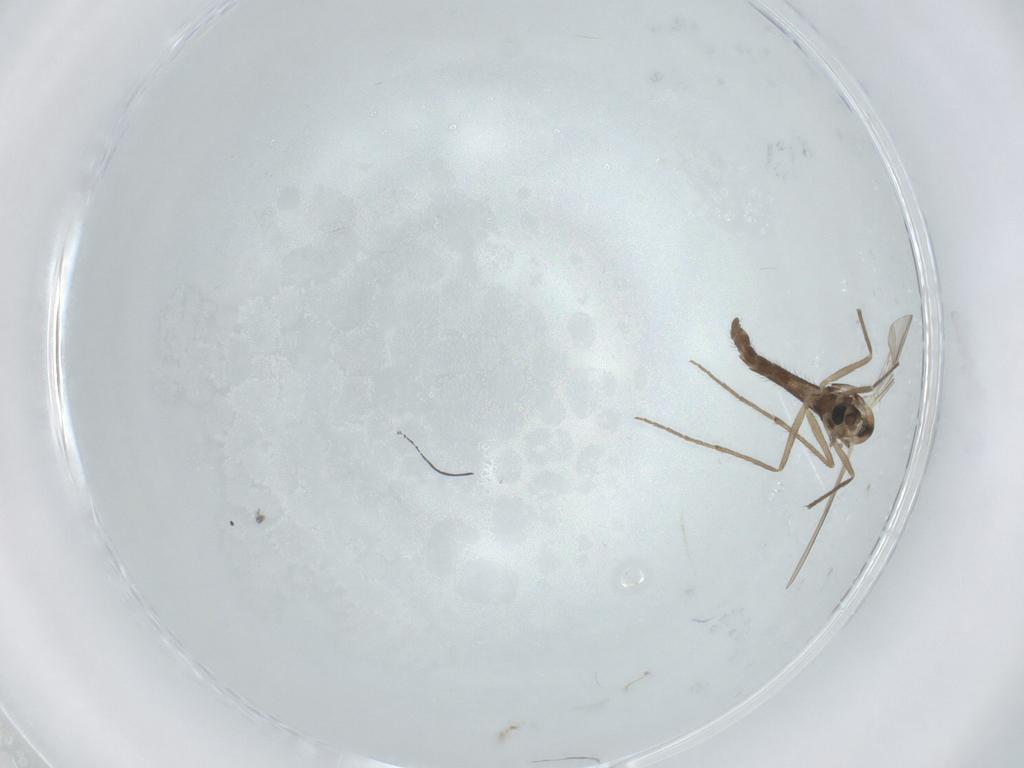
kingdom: Animalia
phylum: Arthropoda
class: Insecta
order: Diptera
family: Chironomidae
